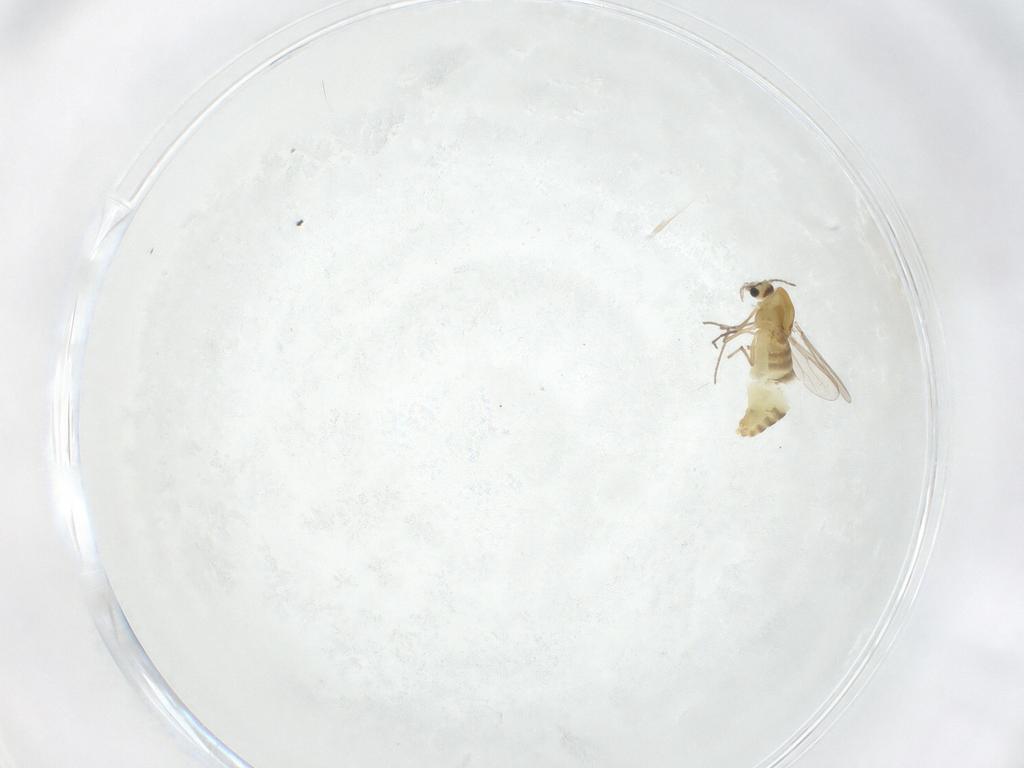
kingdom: Animalia
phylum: Arthropoda
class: Insecta
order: Diptera
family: Chironomidae
